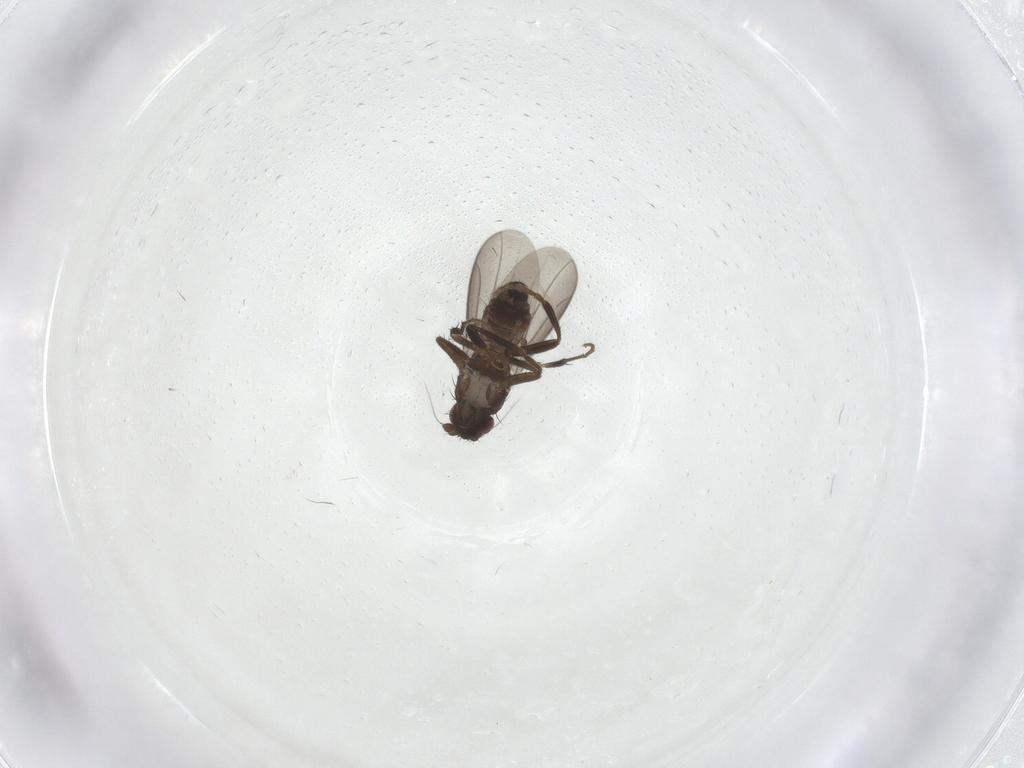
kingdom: Animalia
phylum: Arthropoda
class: Insecta
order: Diptera
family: Sphaeroceridae
